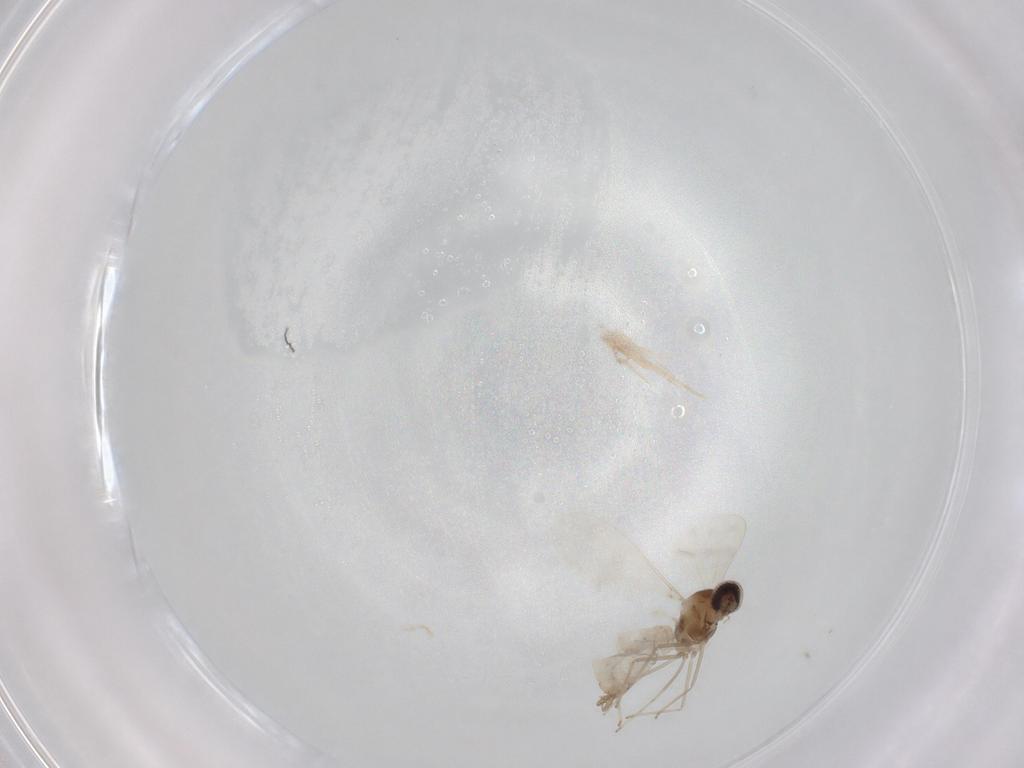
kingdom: Animalia
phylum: Arthropoda
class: Insecta
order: Diptera
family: Cecidomyiidae
